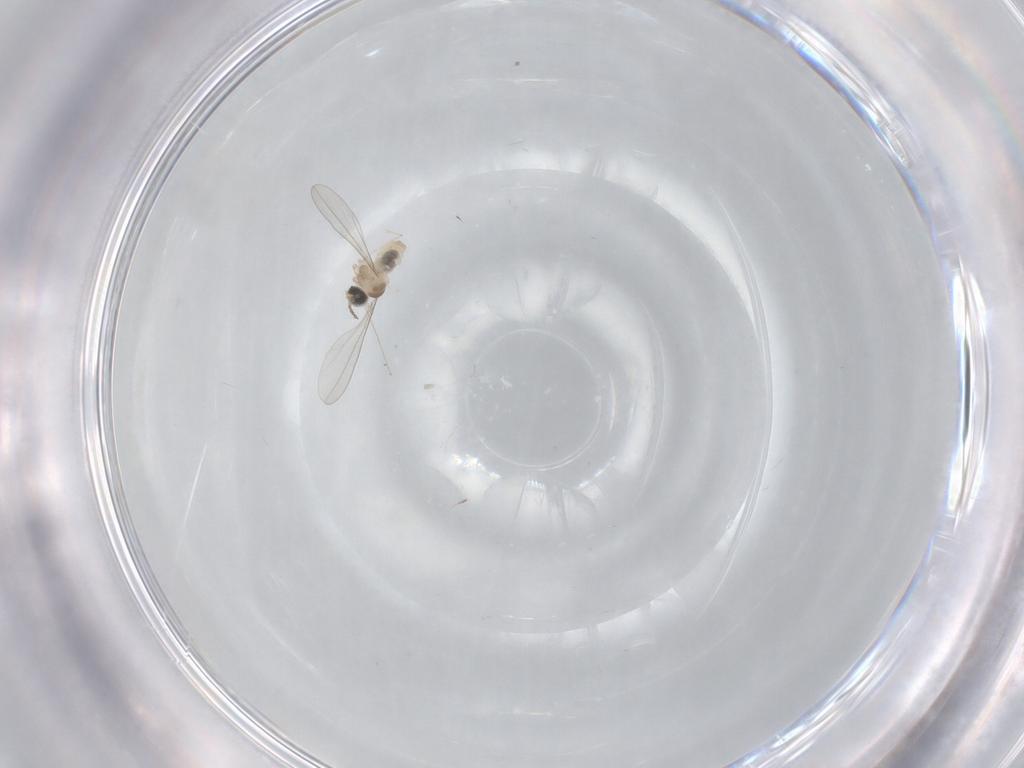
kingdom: Animalia
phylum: Arthropoda
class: Insecta
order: Diptera
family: Cecidomyiidae
